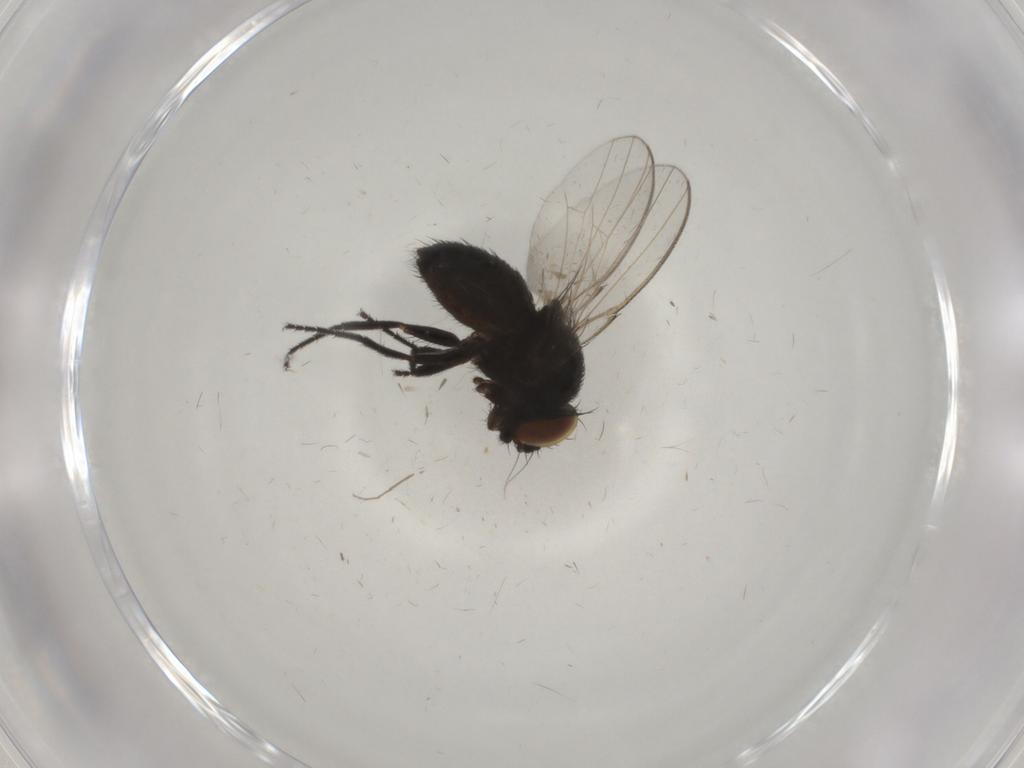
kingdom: Animalia
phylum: Arthropoda
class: Insecta
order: Diptera
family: Milichiidae
